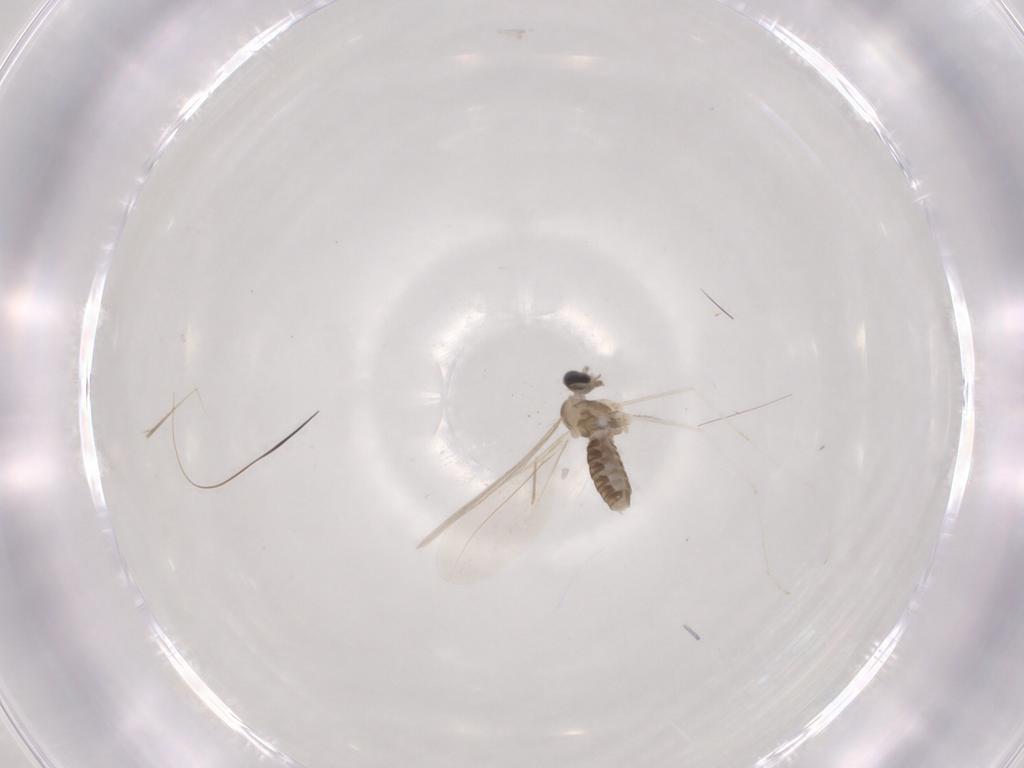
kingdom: Animalia
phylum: Arthropoda
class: Insecta
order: Diptera
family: Cecidomyiidae
